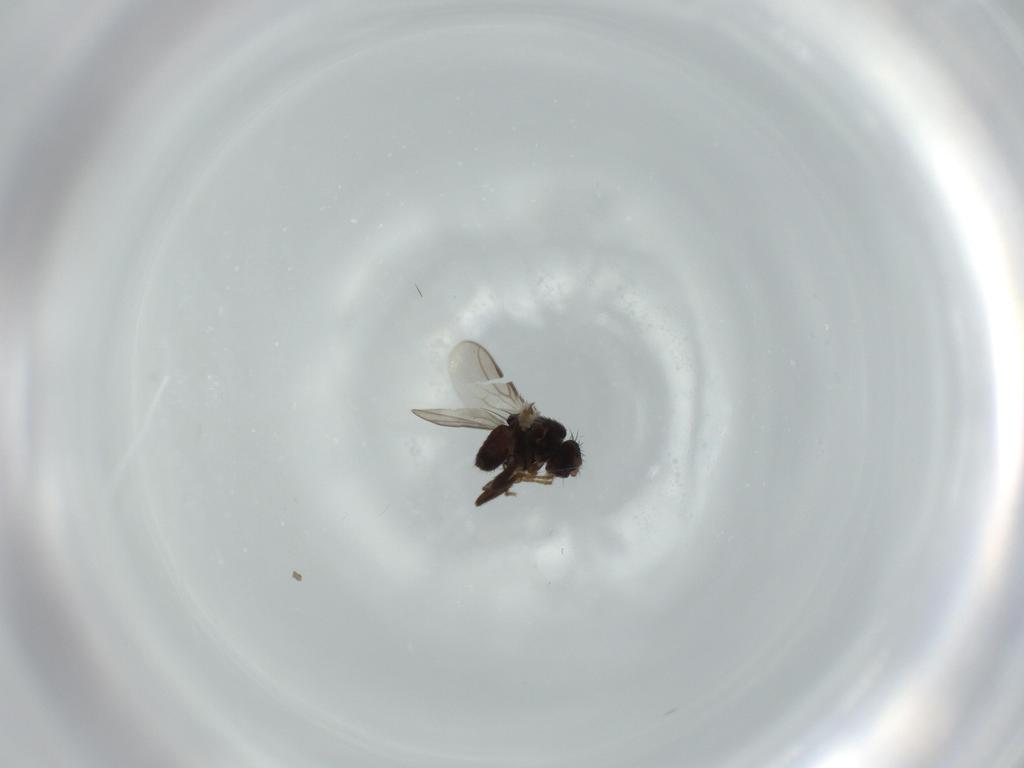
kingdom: Animalia
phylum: Arthropoda
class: Insecta
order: Diptera
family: Sphaeroceridae
